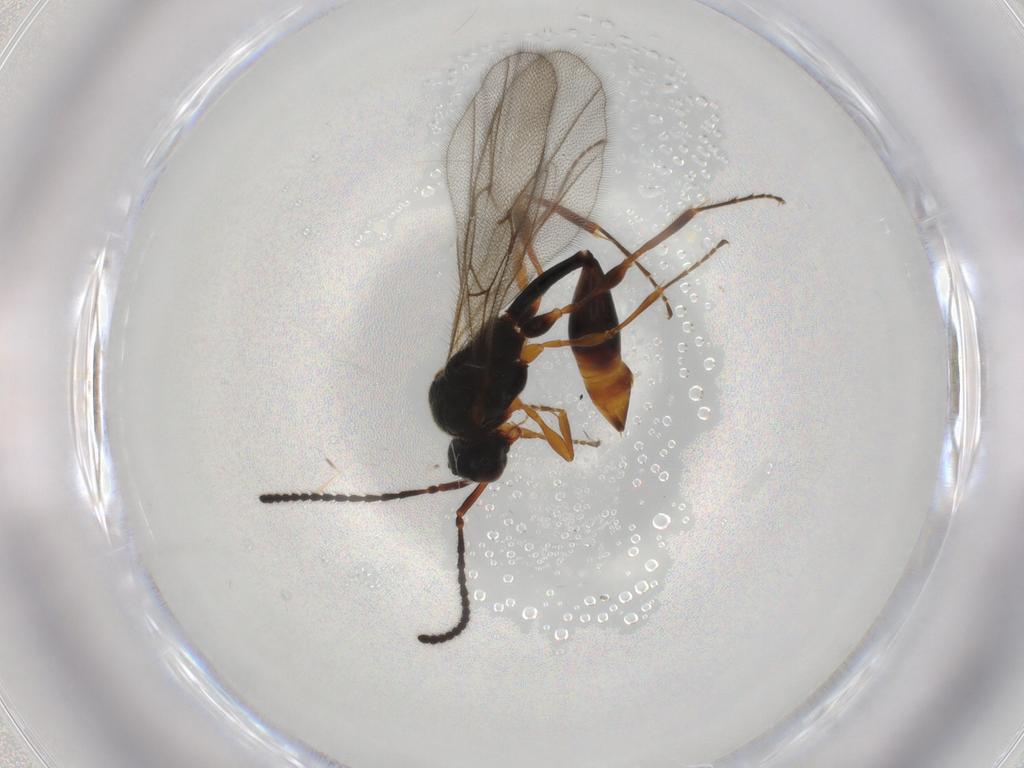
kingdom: Animalia
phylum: Arthropoda
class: Insecta
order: Hymenoptera
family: Diapriidae
